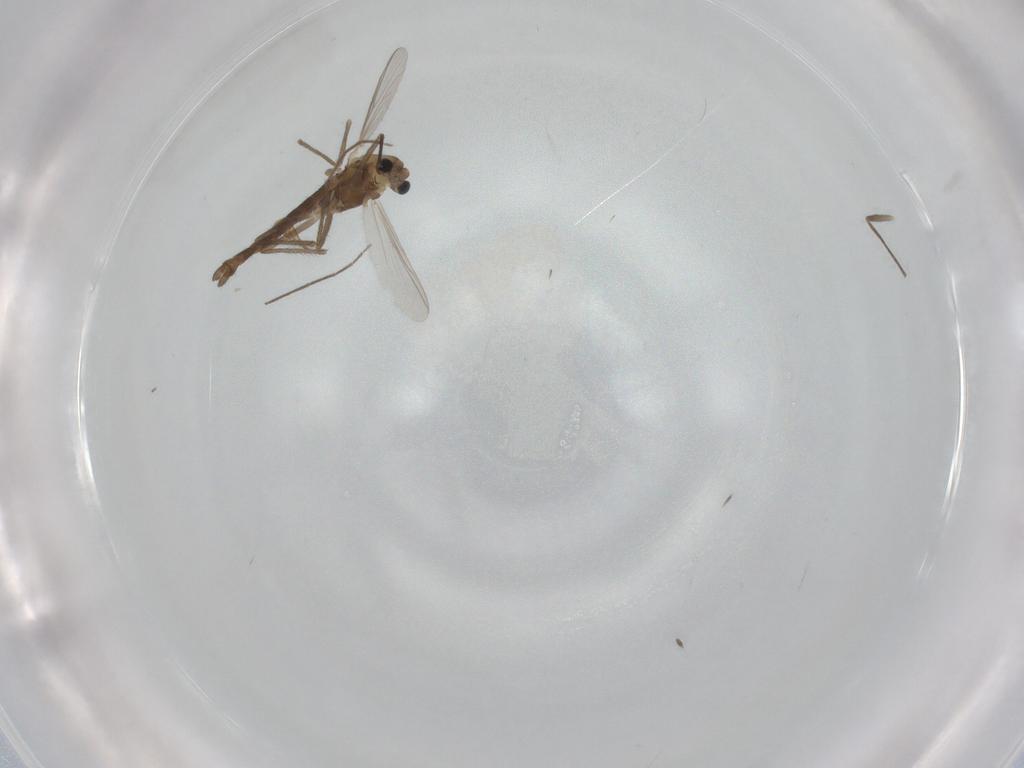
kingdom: Animalia
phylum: Arthropoda
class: Insecta
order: Diptera
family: Chironomidae
